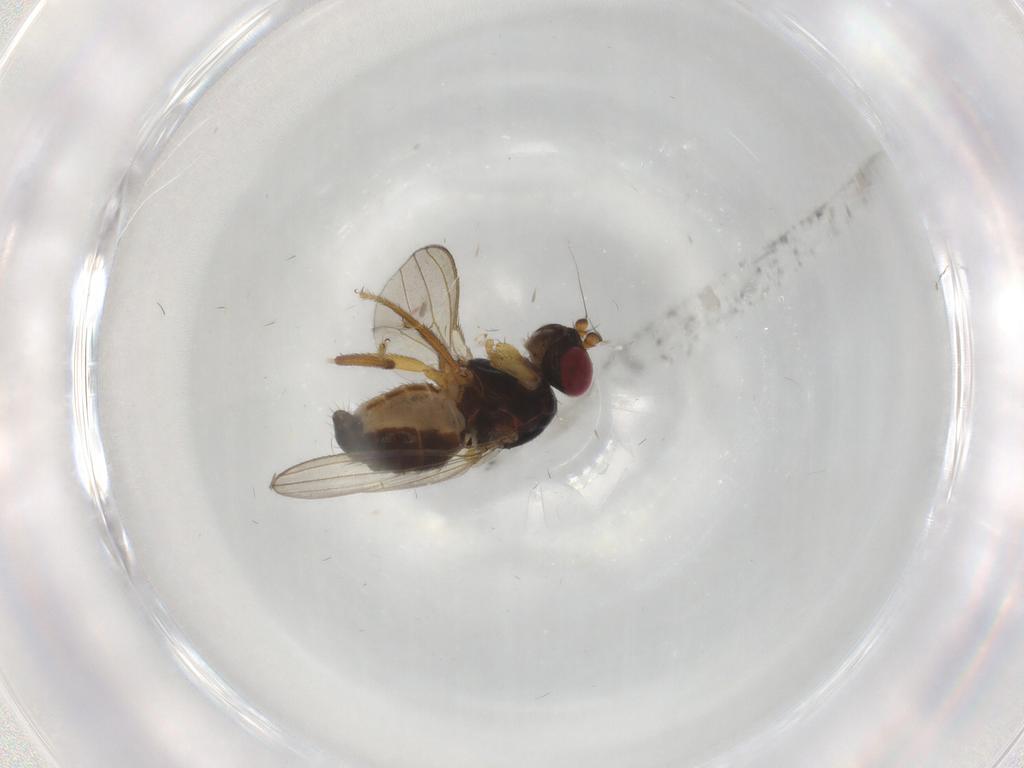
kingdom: Animalia
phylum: Arthropoda
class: Insecta
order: Diptera
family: Cypselosomatidae
